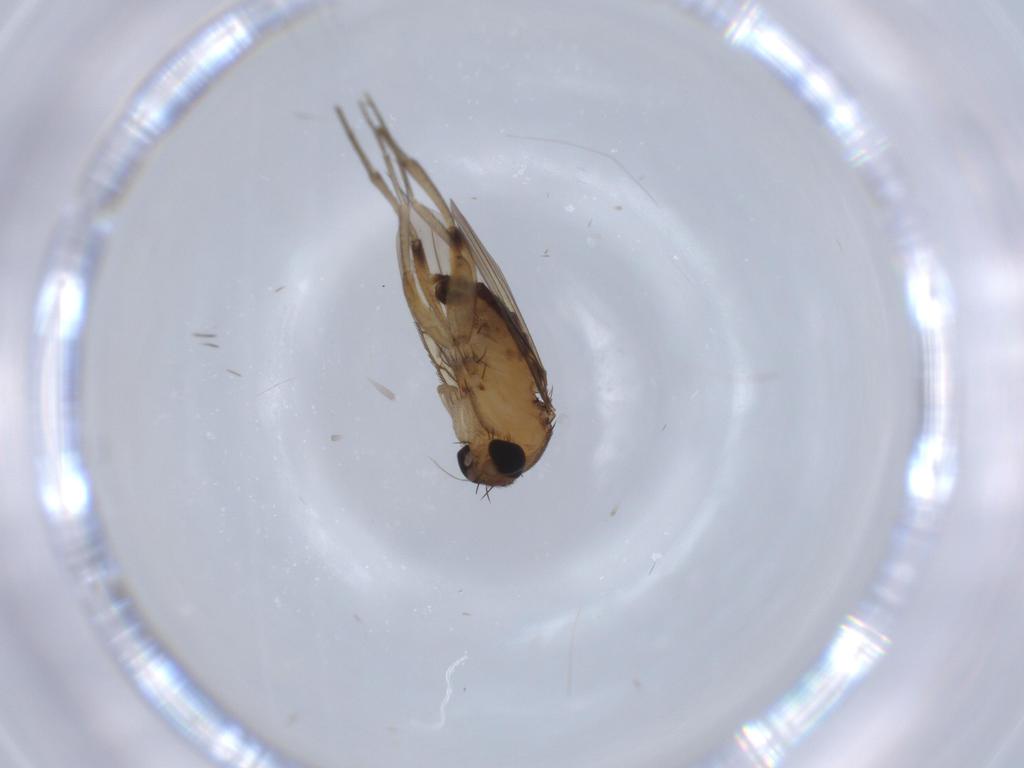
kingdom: Animalia
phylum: Arthropoda
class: Insecta
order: Diptera
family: Phoridae
